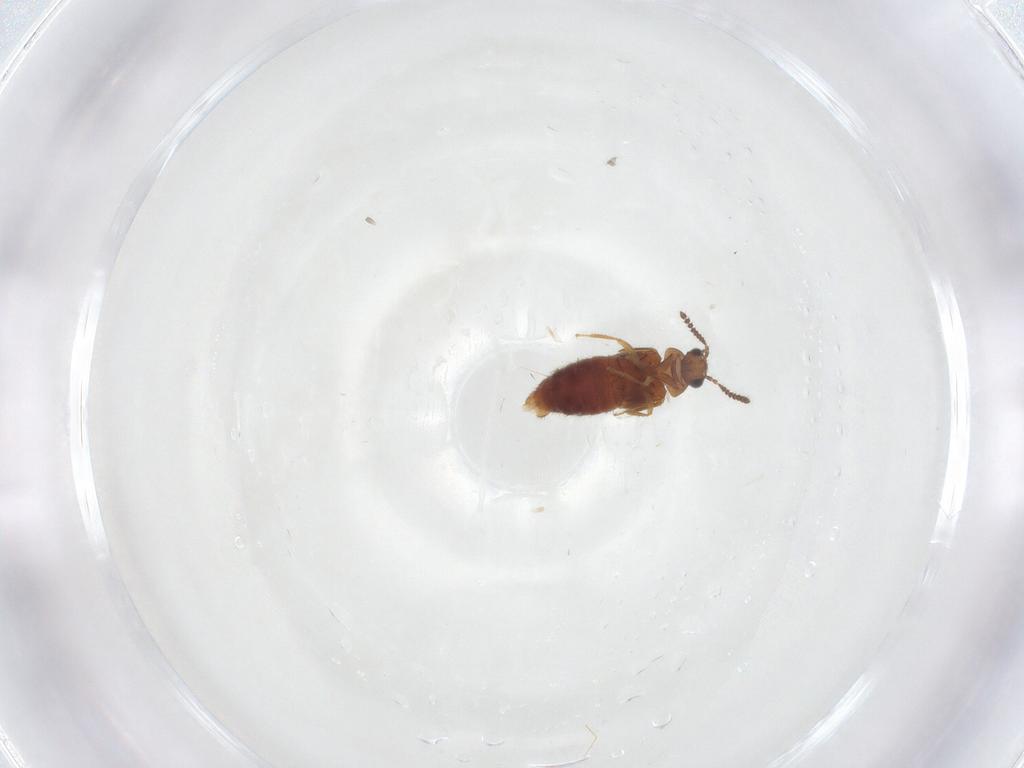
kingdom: Animalia
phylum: Arthropoda
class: Insecta
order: Coleoptera
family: Staphylinidae
